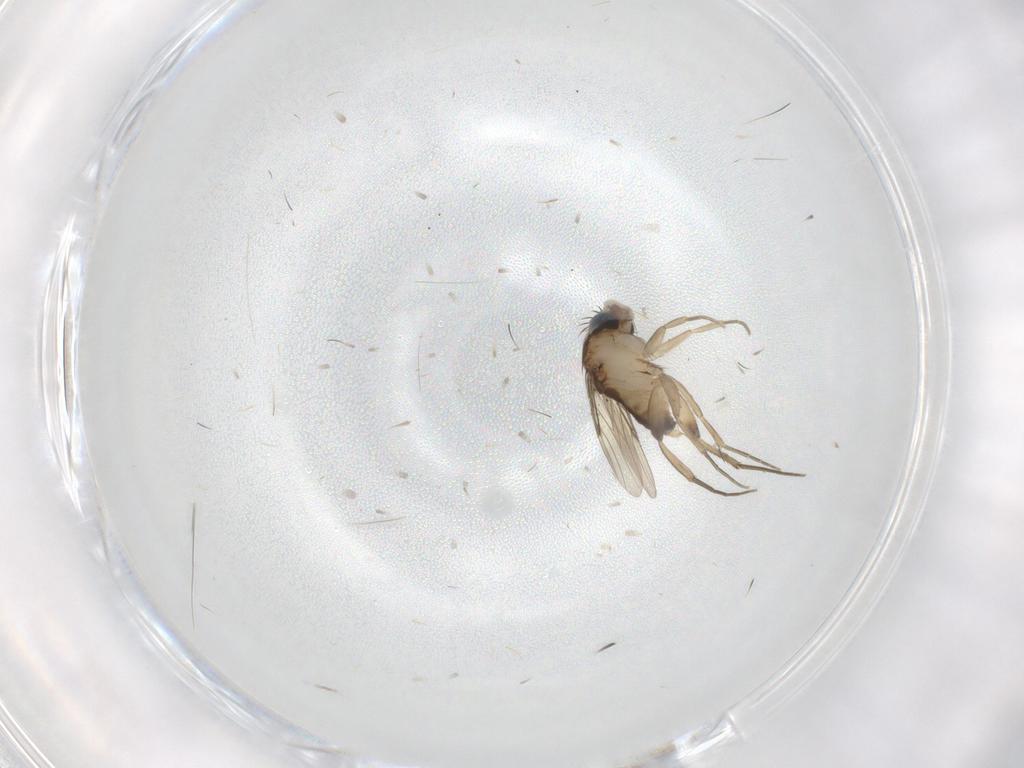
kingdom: Animalia
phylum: Arthropoda
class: Insecta
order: Diptera
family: Phoridae
